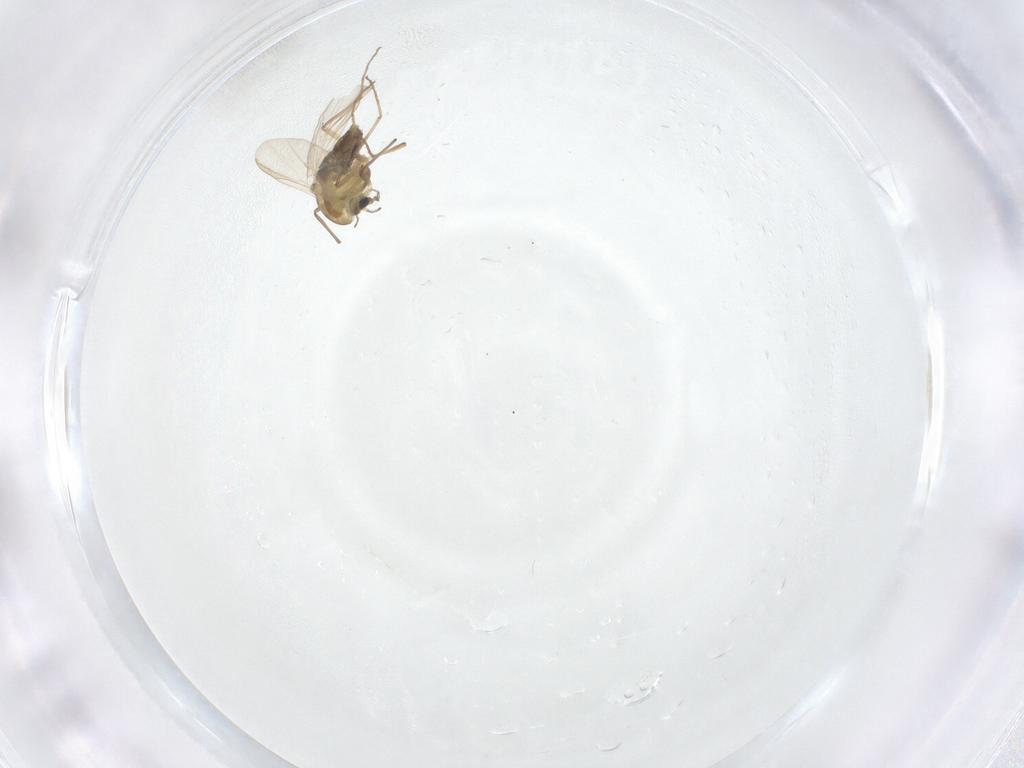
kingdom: Animalia
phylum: Arthropoda
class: Insecta
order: Diptera
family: Chironomidae
